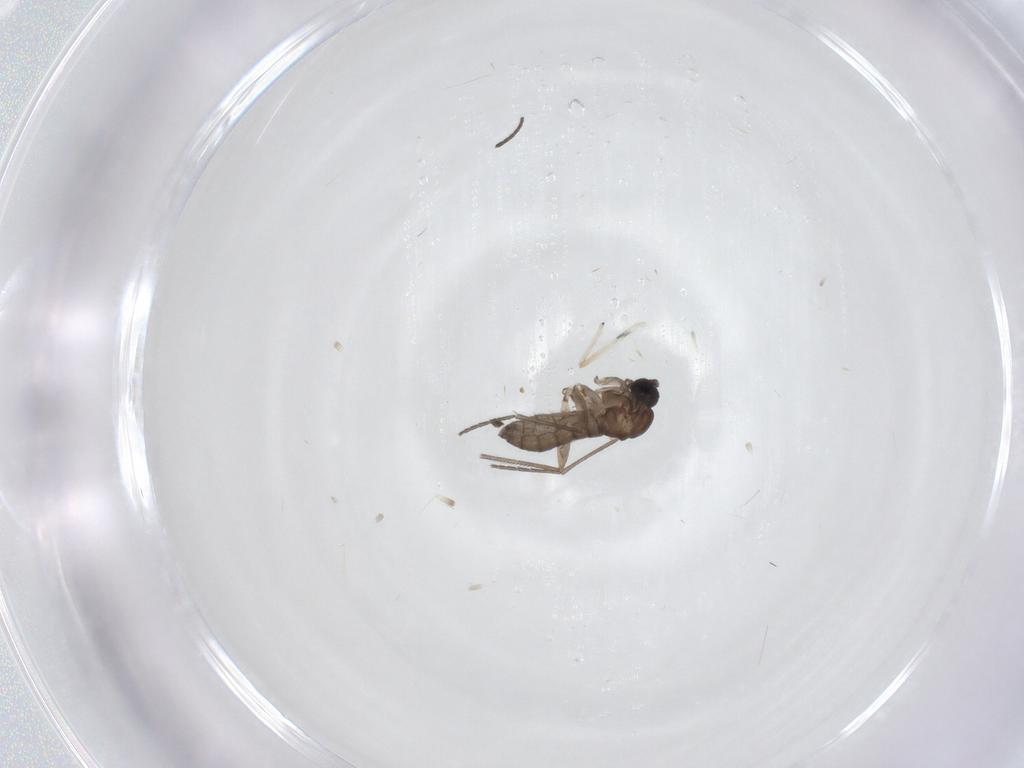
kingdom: Animalia
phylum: Arthropoda
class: Insecta
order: Diptera
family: Sciaridae
